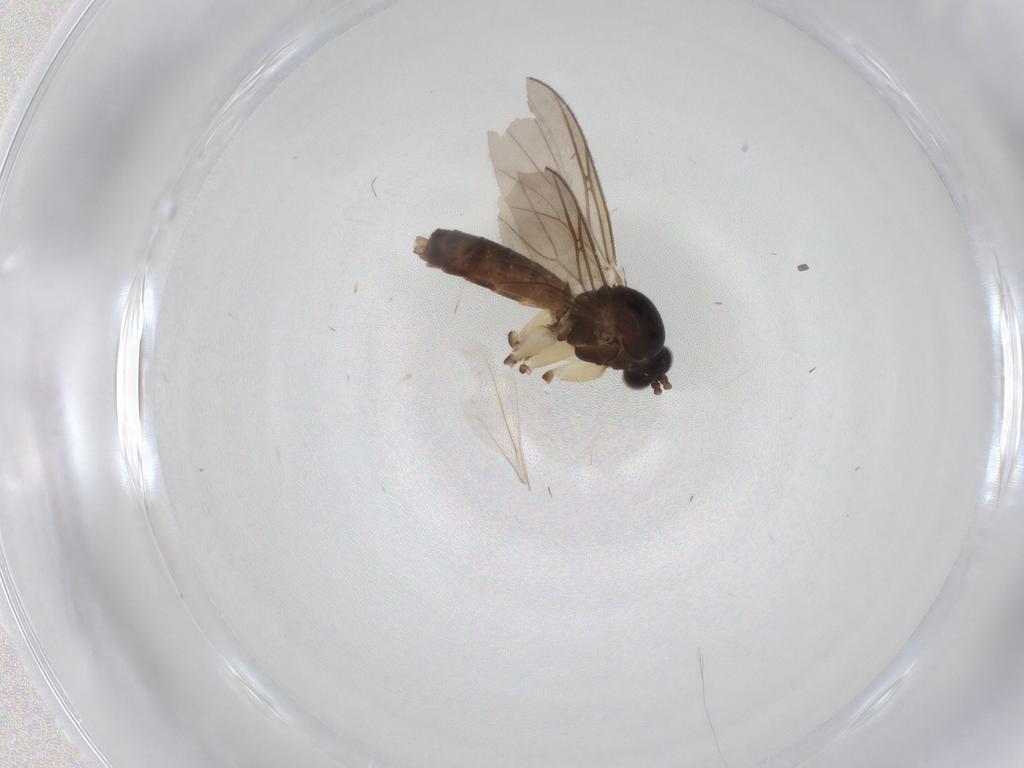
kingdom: Animalia
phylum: Arthropoda
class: Insecta
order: Diptera
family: Cecidomyiidae
